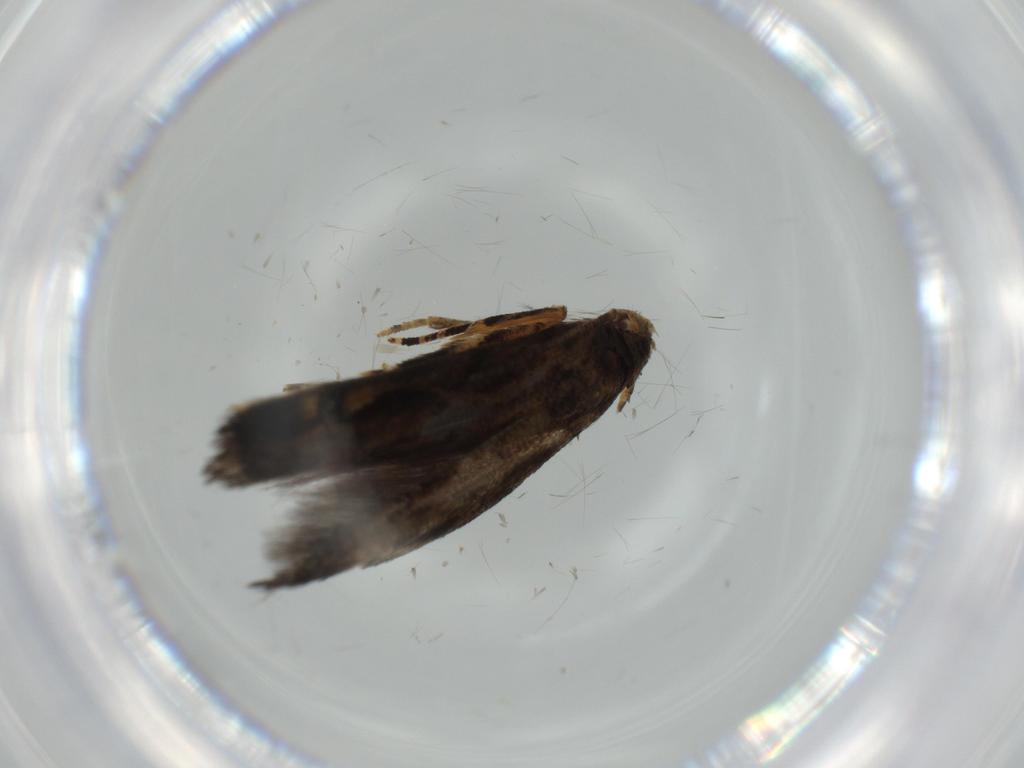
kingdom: Animalia
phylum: Arthropoda
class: Insecta
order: Lepidoptera
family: Momphidae
